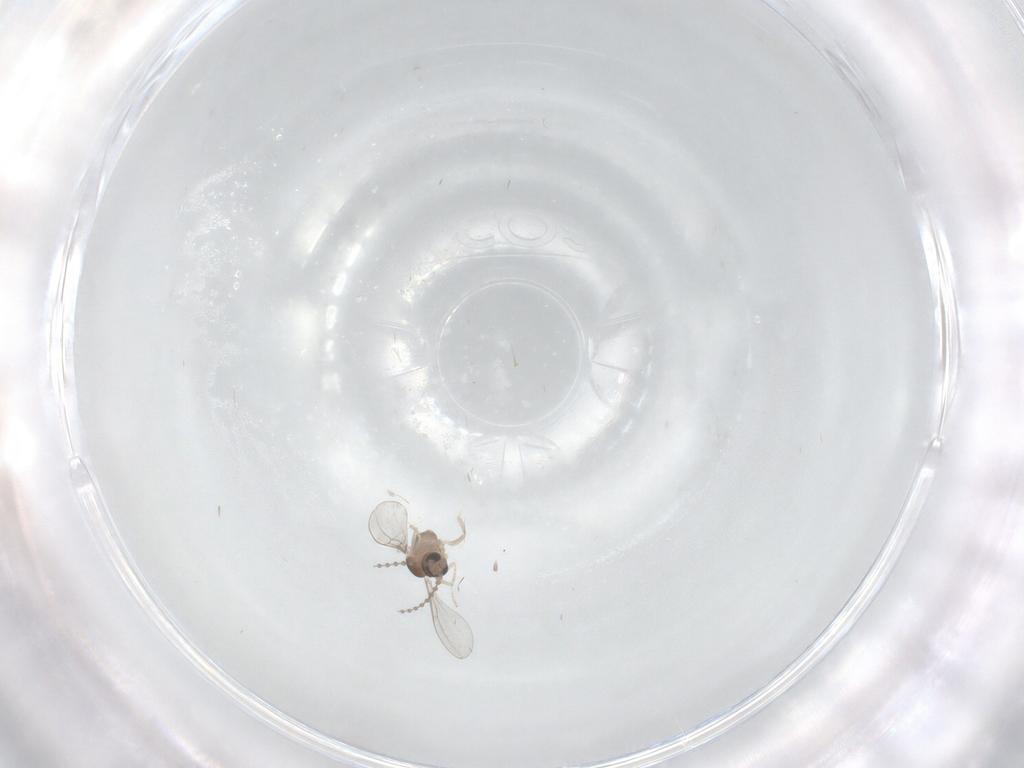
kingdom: Animalia
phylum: Arthropoda
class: Insecta
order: Diptera
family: Cecidomyiidae
